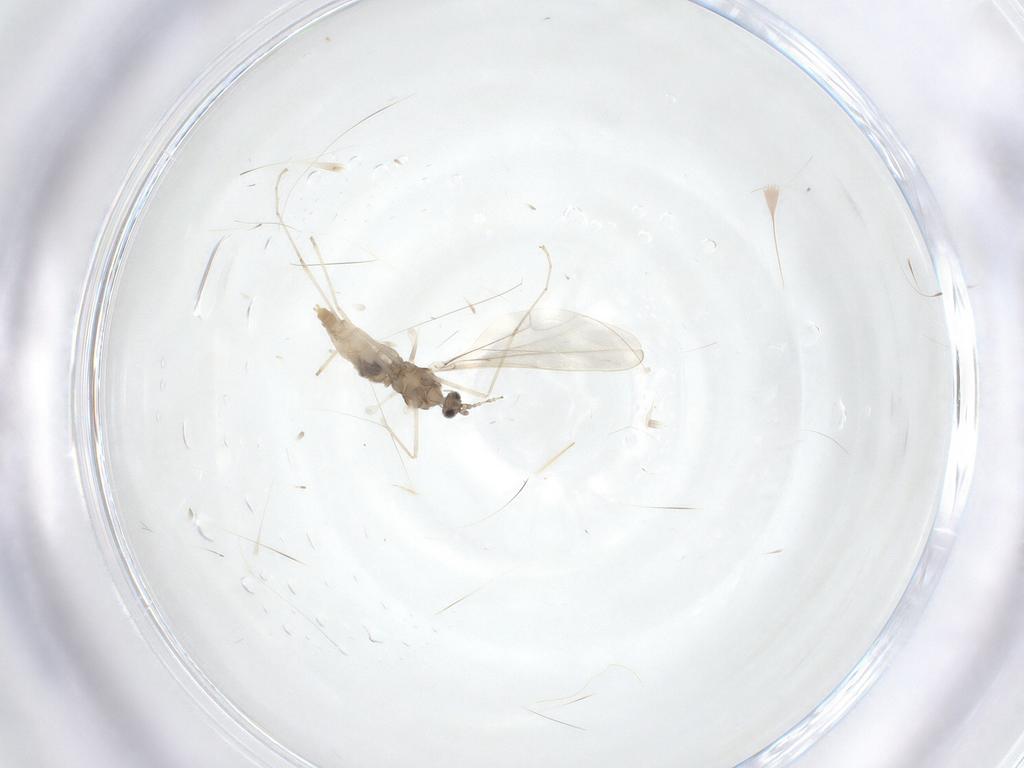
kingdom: Animalia
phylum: Arthropoda
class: Insecta
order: Diptera
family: Cecidomyiidae
